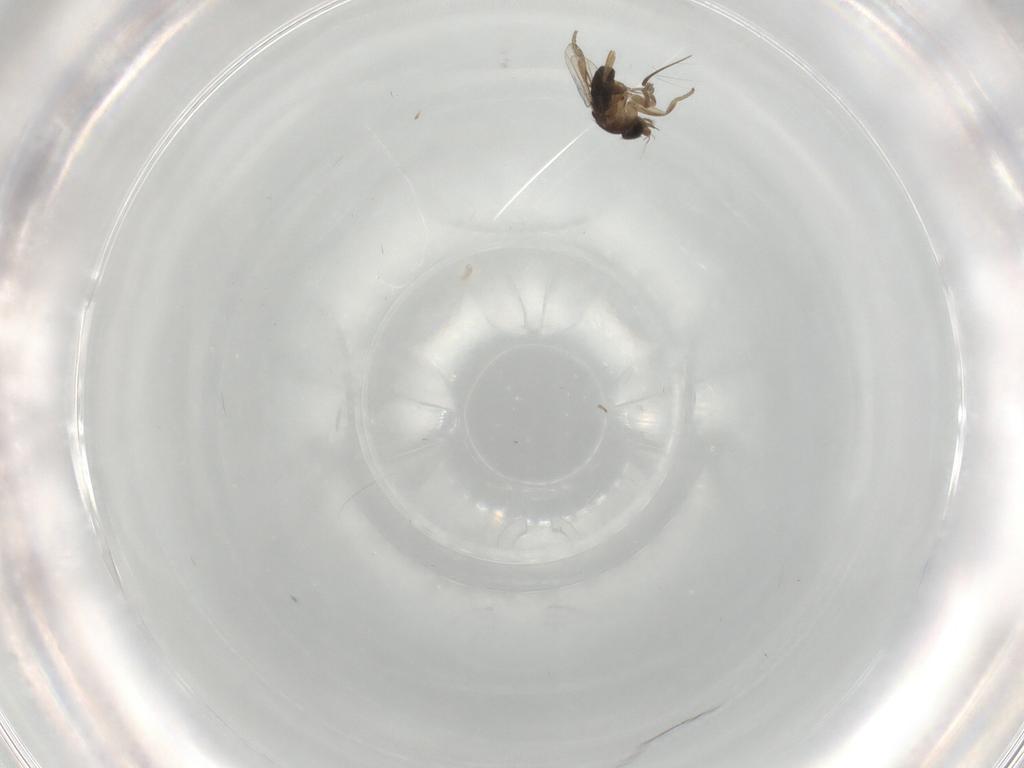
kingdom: Animalia
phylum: Arthropoda
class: Insecta
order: Diptera
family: Phoridae
